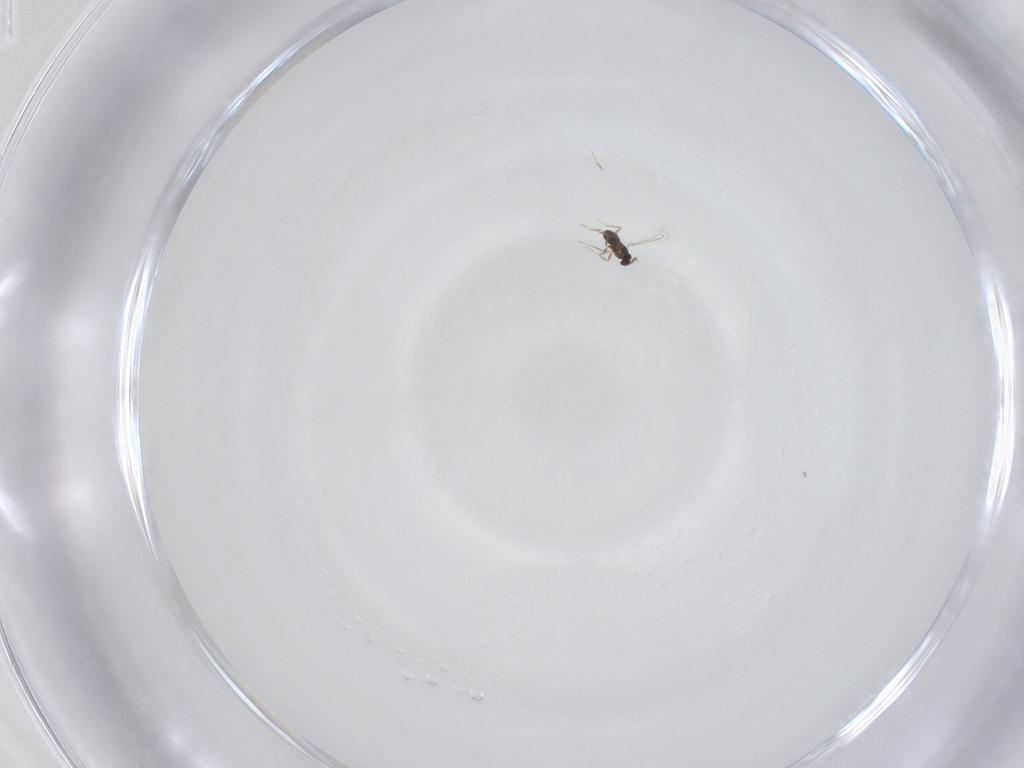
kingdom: Animalia
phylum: Arthropoda
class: Insecta
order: Hymenoptera
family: Mymaridae
